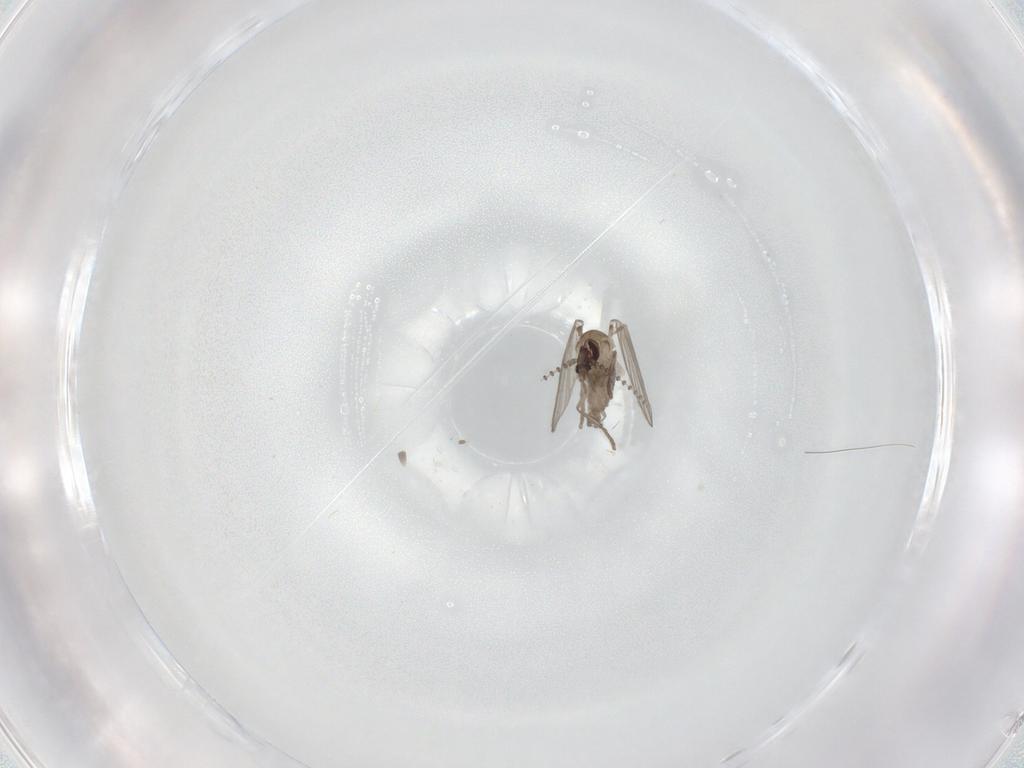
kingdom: Animalia
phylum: Arthropoda
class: Insecta
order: Diptera
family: Psychodidae
